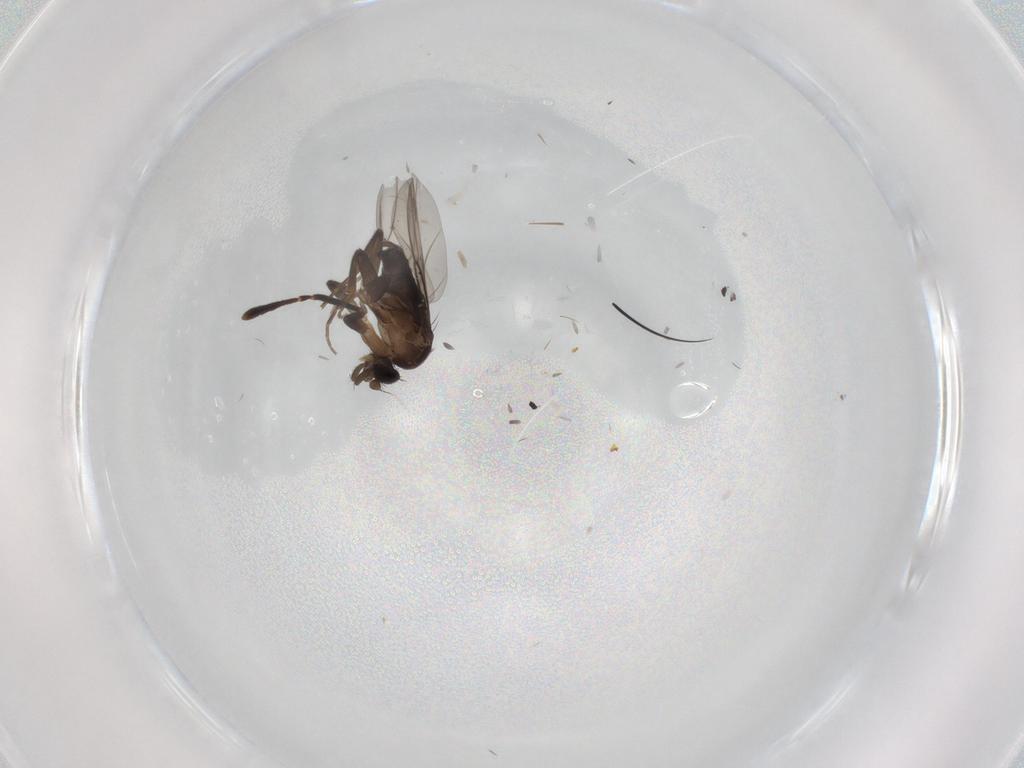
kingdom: Animalia
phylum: Arthropoda
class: Insecta
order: Diptera
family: Phoridae
